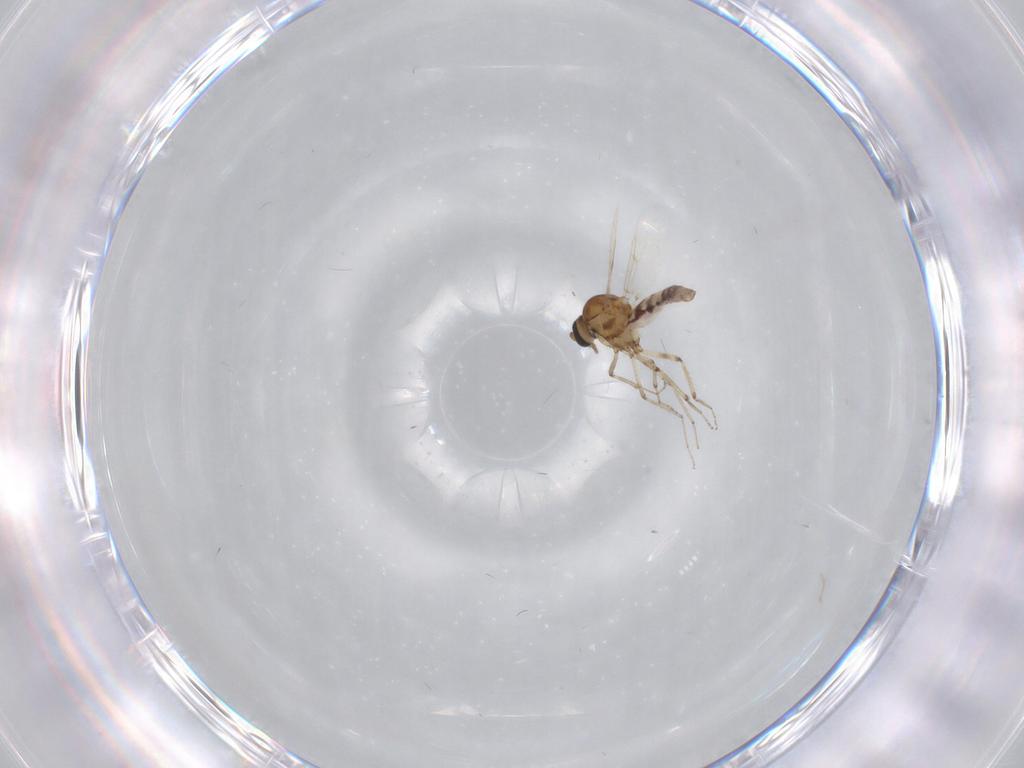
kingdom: Animalia
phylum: Arthropoda
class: Insecta
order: Diptera
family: Ceratopogonidae
